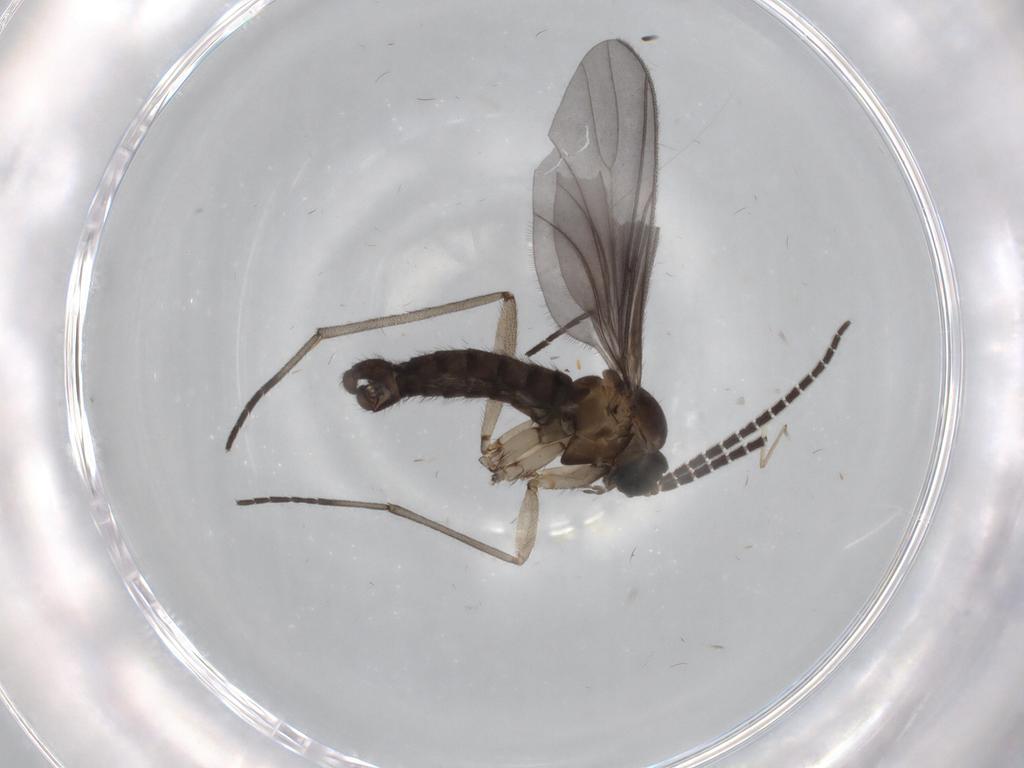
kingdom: Animalia
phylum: Arthropoda
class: Insecta
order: Diptera
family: Sciaridae
